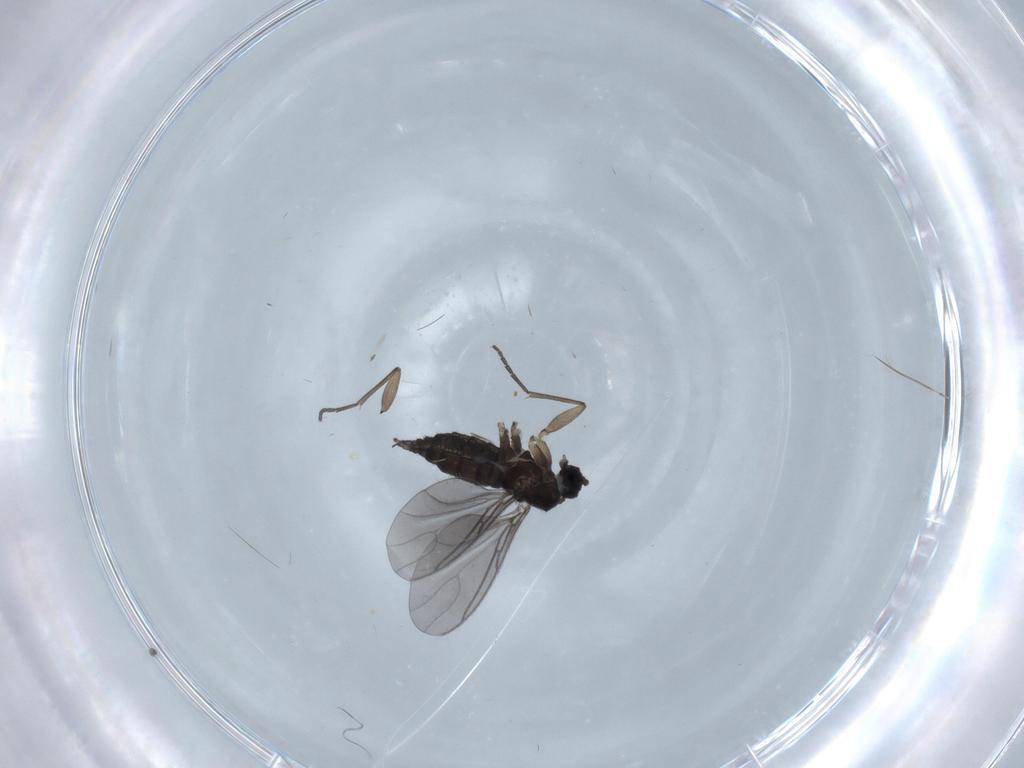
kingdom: Animalia
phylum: Arthropoda
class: Insecta
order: Diptera
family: Sciaridae
